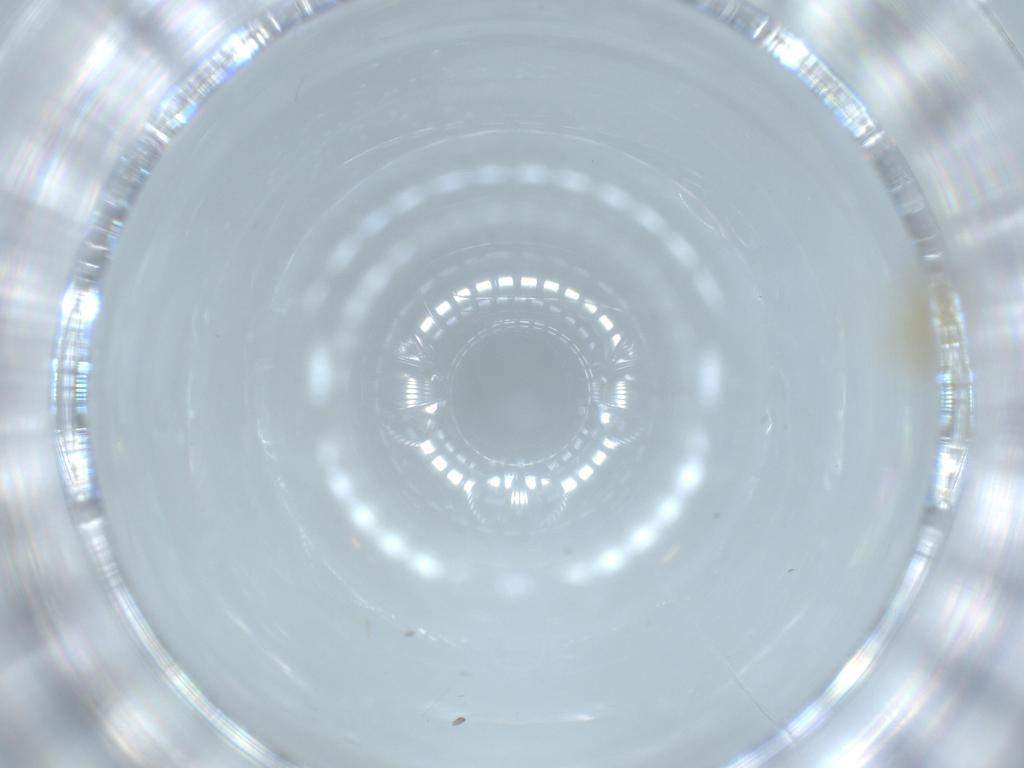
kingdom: Animalia
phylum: Arthropoda
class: Insecta
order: Diptera
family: Cecidomyiidae
